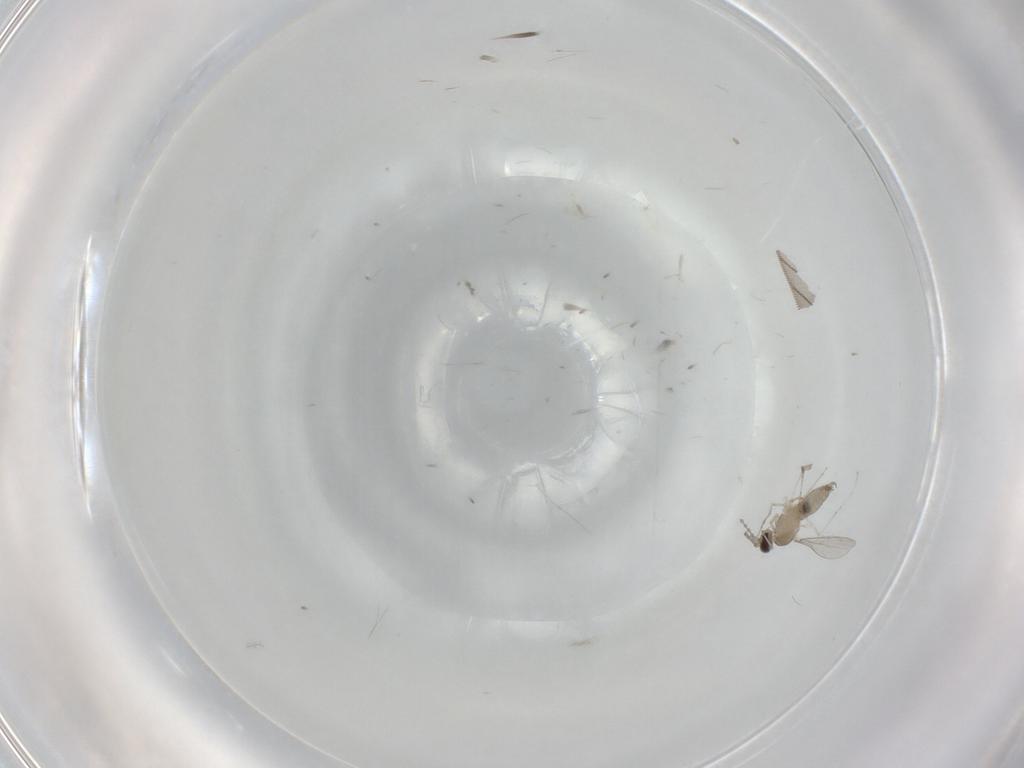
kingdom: Animalia
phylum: Arthropoda
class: Insecta
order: Diptera
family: Cecidomyiidae
